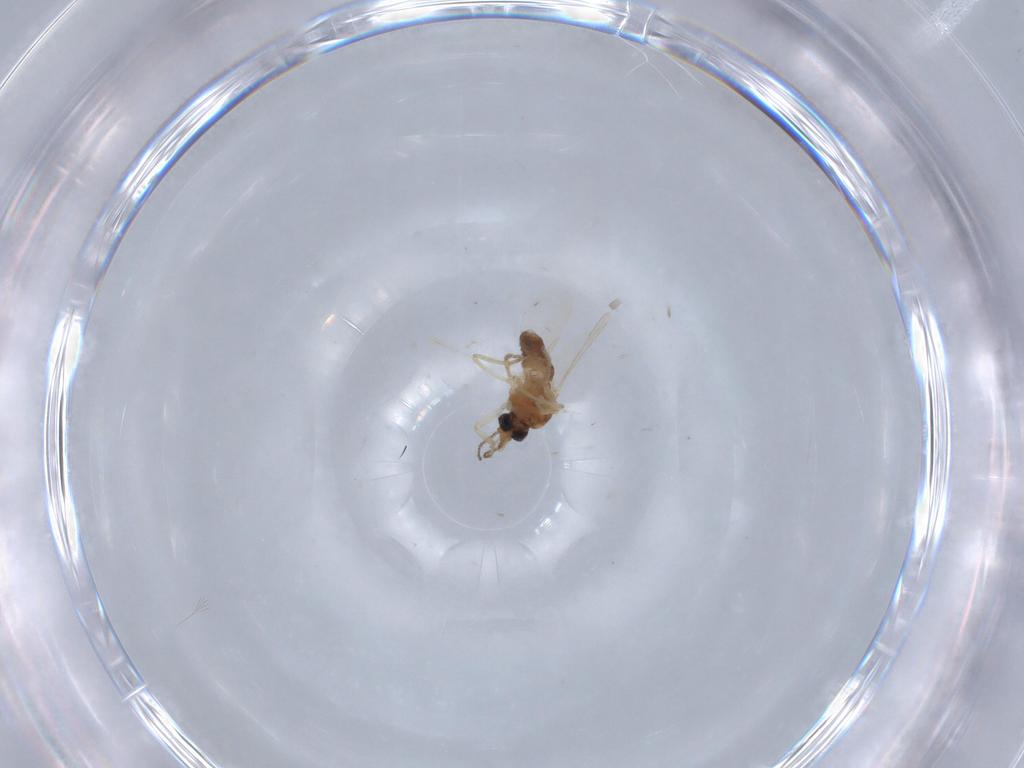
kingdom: Animalia
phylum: Arthropoda
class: Insecta
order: Diptera
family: Ceratopogonidae
